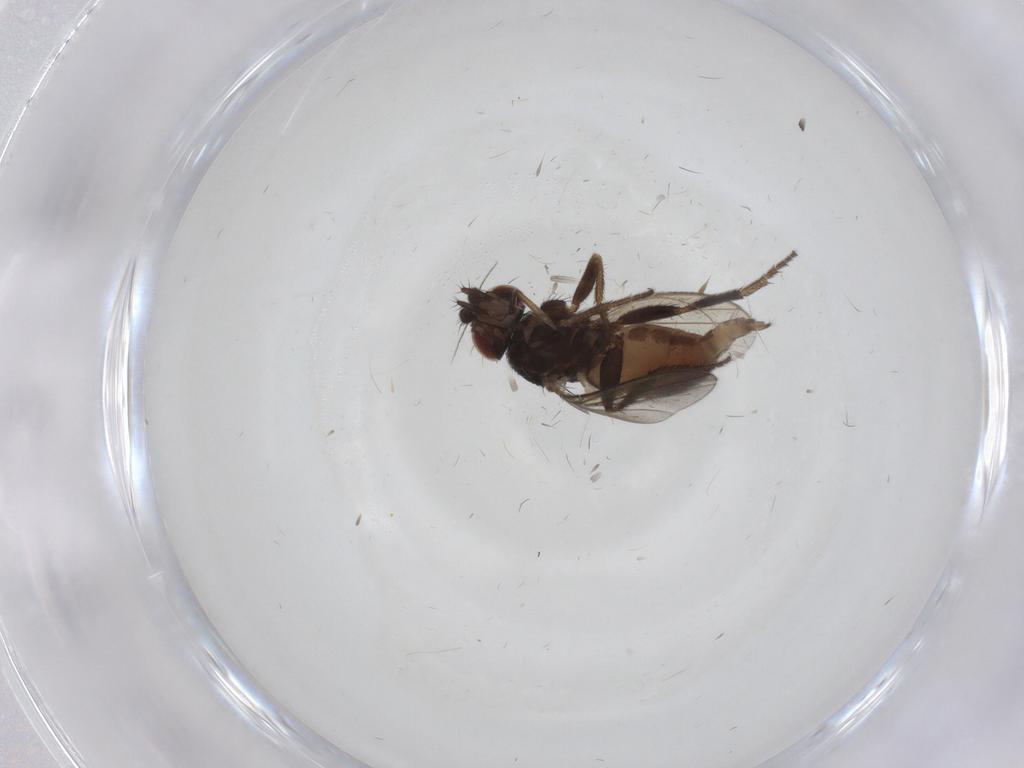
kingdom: Animalia
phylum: Arthropoda
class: Insecta
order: Diptera
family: Milichiidae
